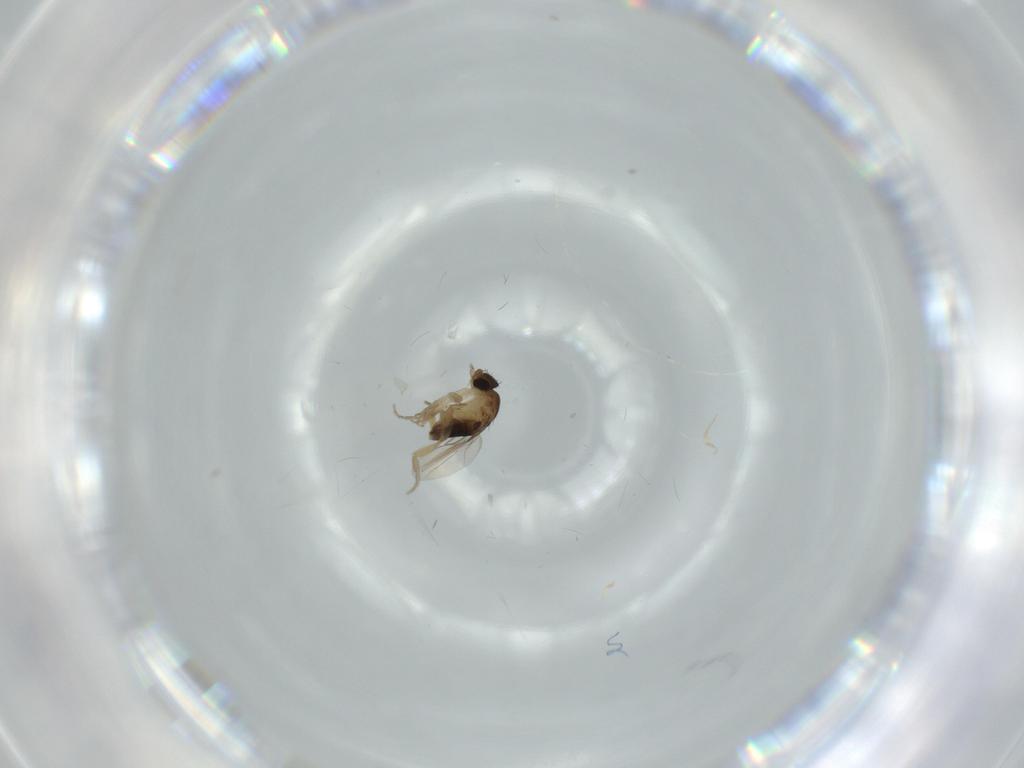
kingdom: Animalia
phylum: Arthropoda
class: Insecta
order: Diptera
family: Phoridae
